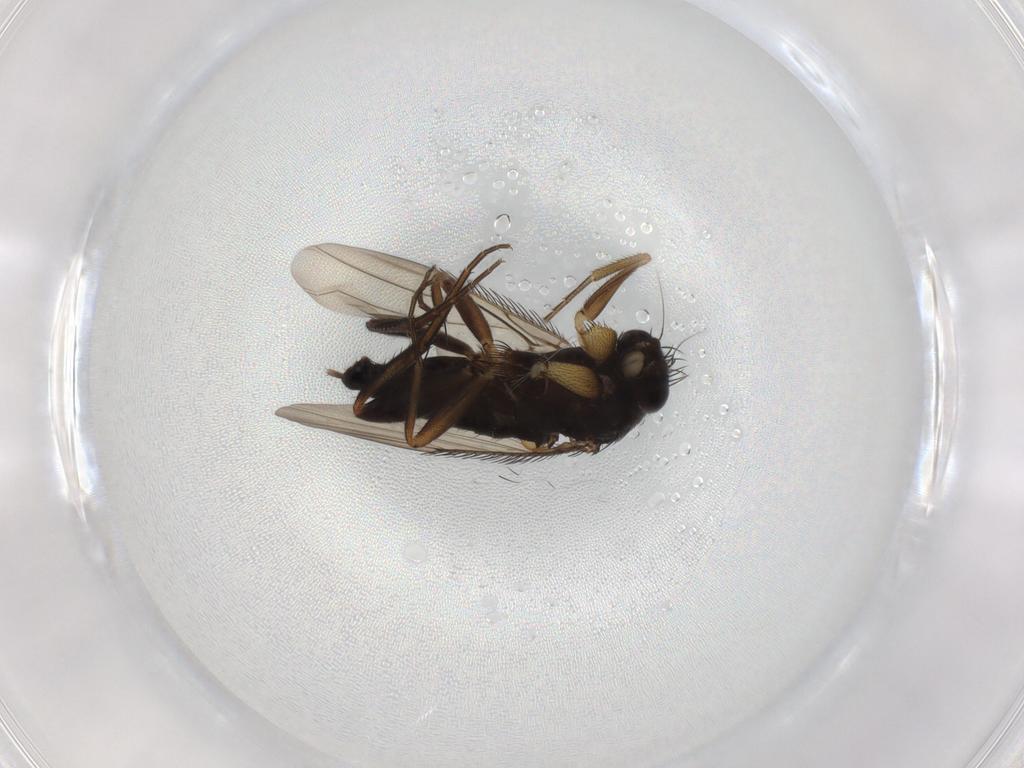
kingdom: Animalia
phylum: Arthropoda
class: Insecta
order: Diptera
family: Phoridae
